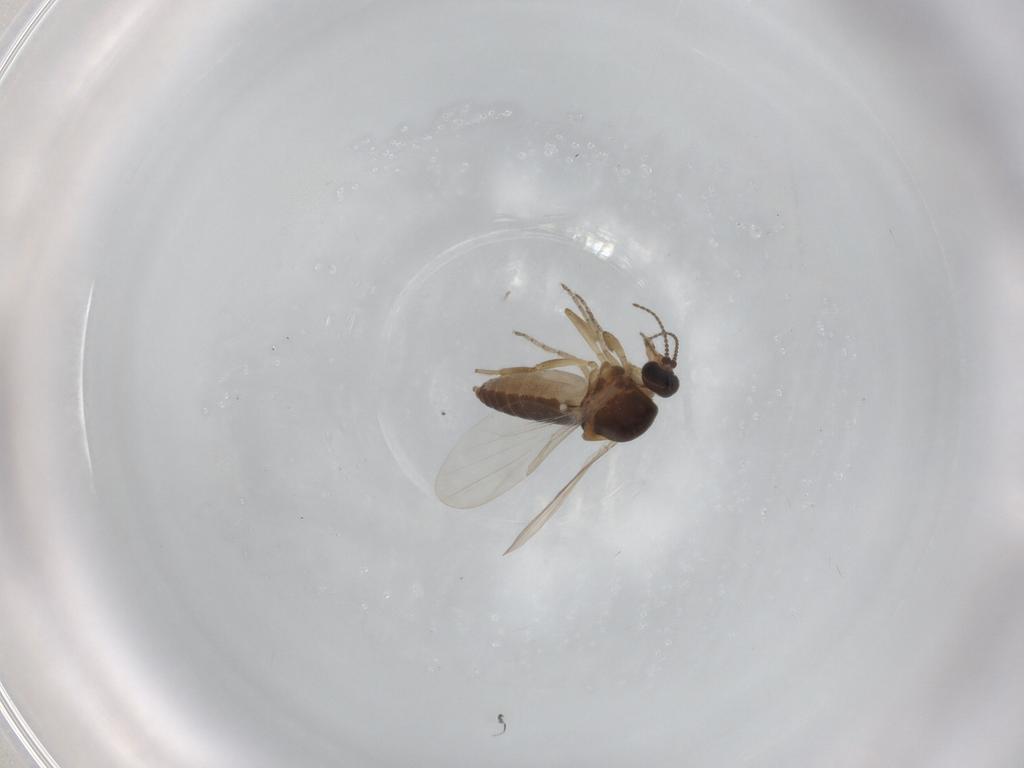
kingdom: Animalia
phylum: Arthropoda
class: Insecta
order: Diptera
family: Ceratopogonidae
